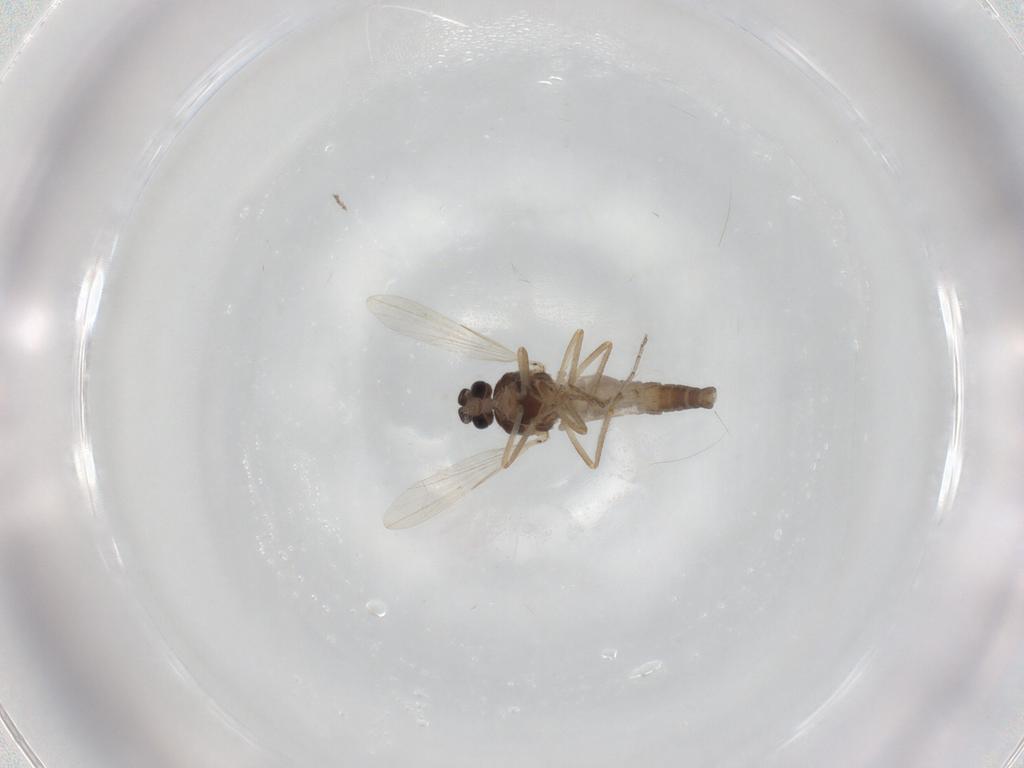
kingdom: Animalia
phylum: Arthropoda
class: Insecta
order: Diptera
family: Ceratopogonidae
